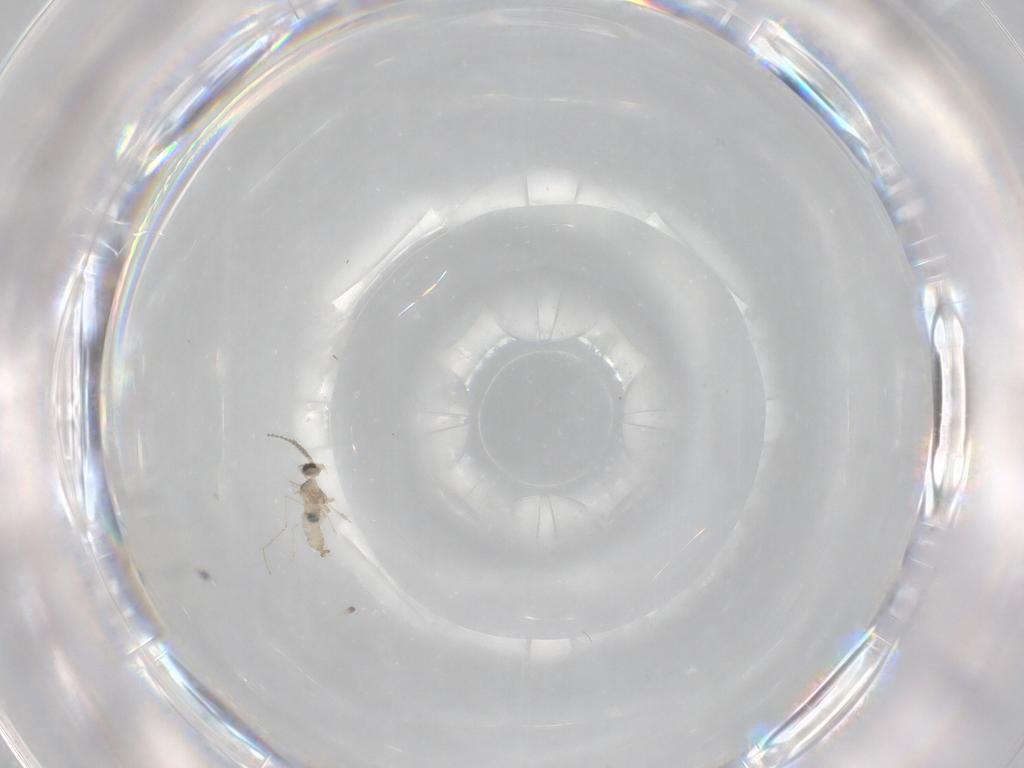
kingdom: Animalia
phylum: Arthropoda
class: Insecta
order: Diptera
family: Cecidomyiidae
